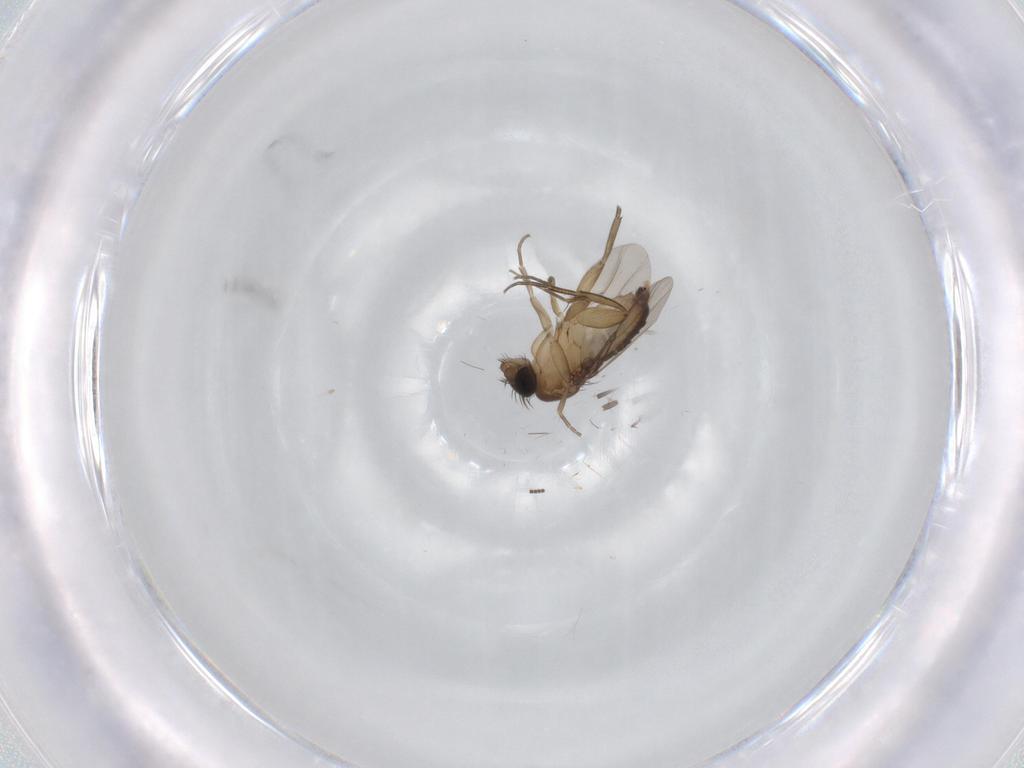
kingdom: Animalia
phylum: Arthropoda
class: Insecta
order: Diptera
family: Phoridae
